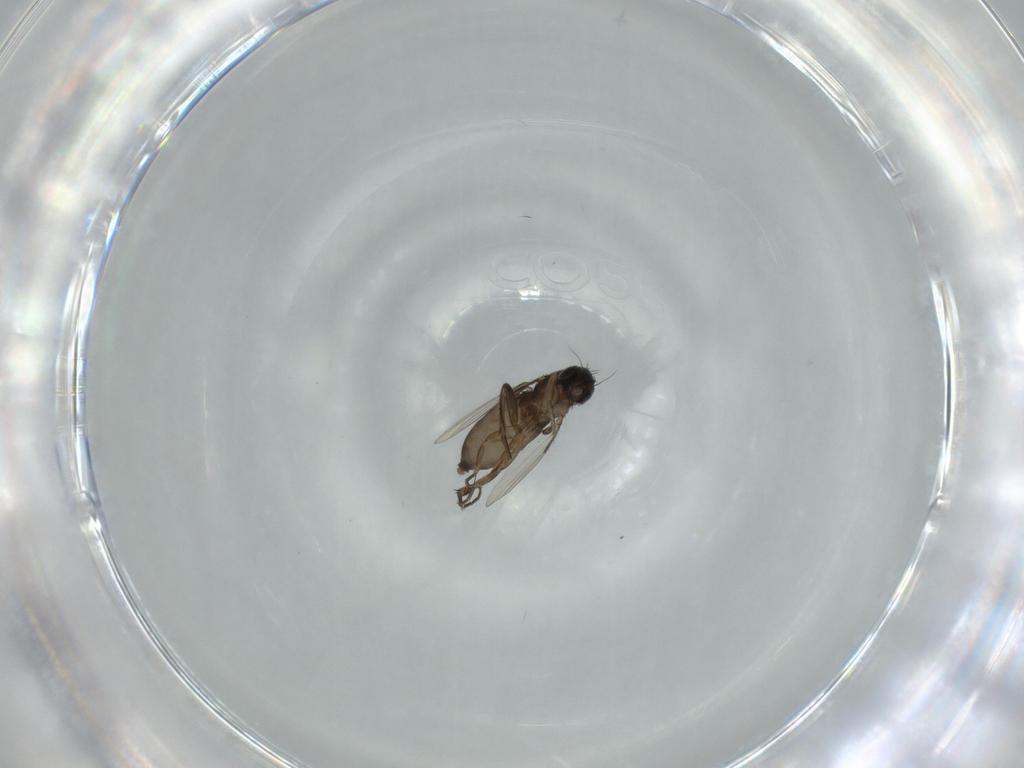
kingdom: Animalia
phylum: Arthropoda
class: Insecta
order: Diptera
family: Phoridae
